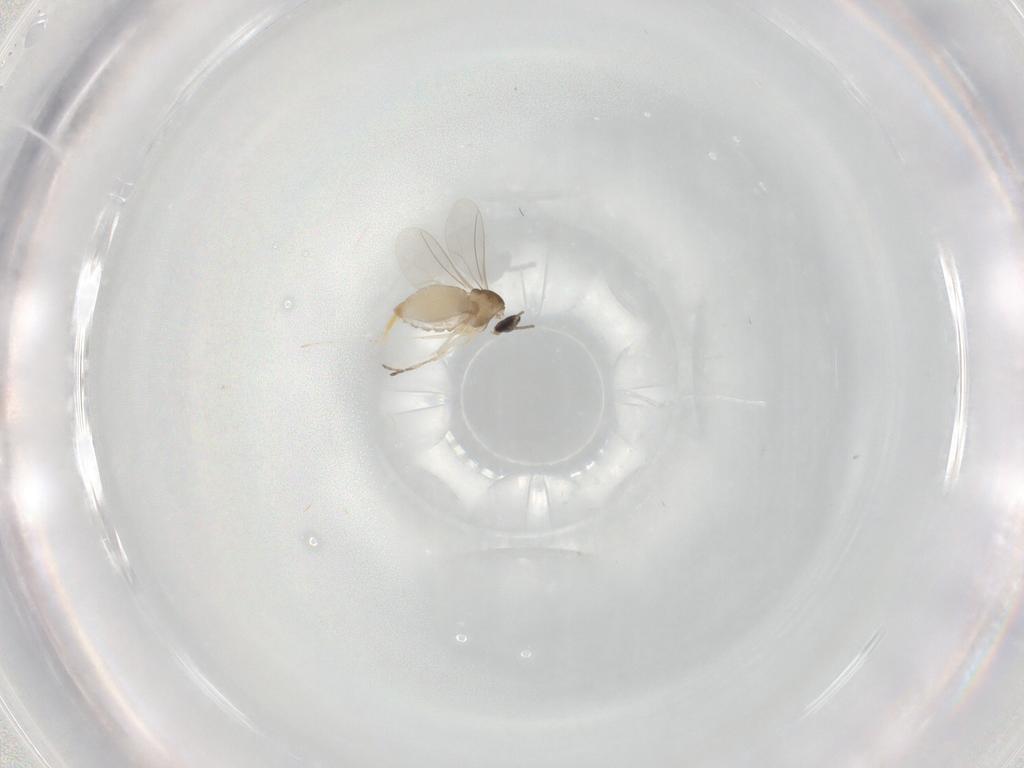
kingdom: Animalia
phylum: Arthropoda
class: Insecta
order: Diptera
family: Cecidomyiidae
